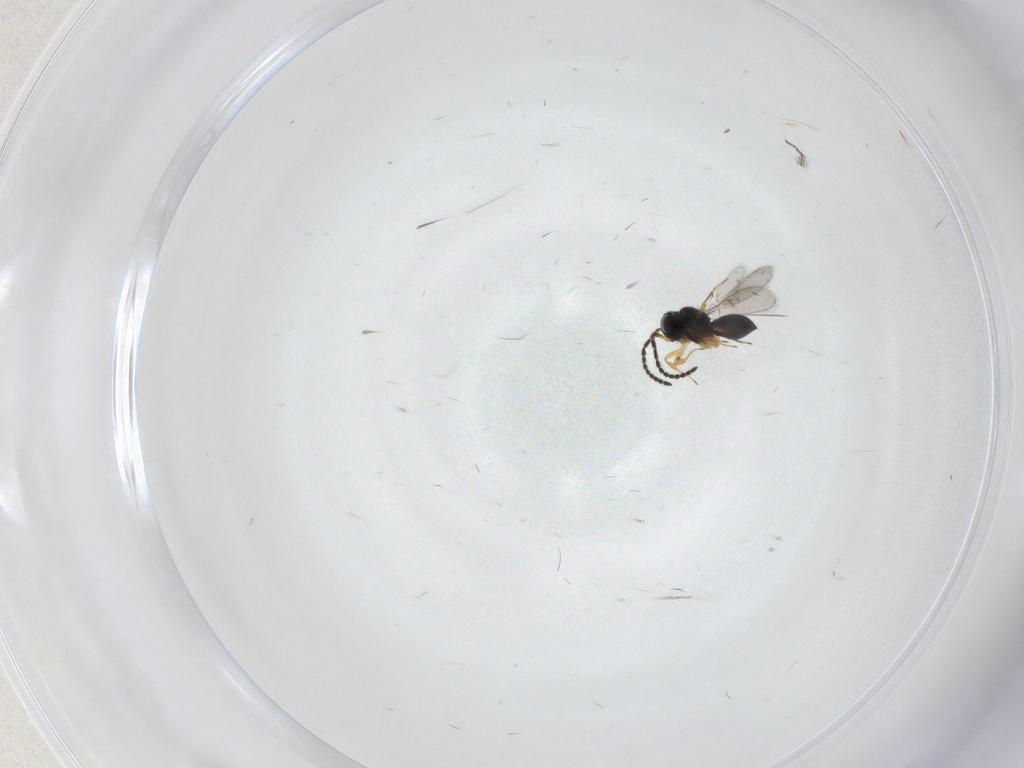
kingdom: Animalia
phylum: Arthropoda
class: Insecta
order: Hymenoptera
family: Scelionidae
